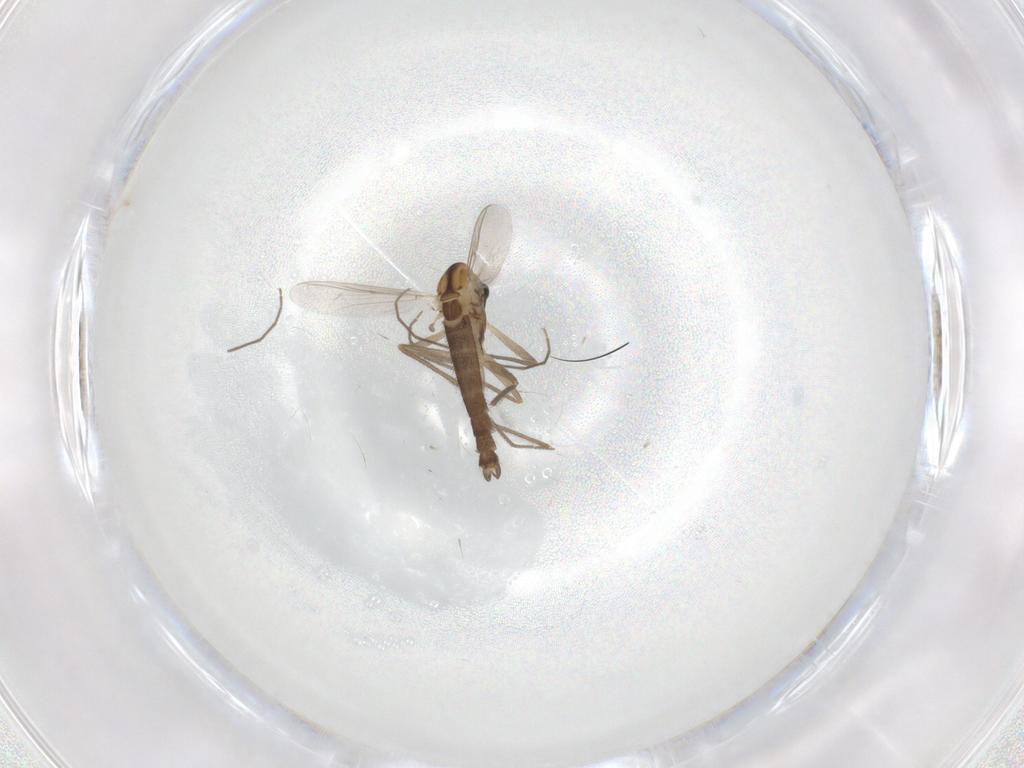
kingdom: Animalia
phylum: Arthropoda
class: Insecta
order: Diptera
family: Chironomidae
